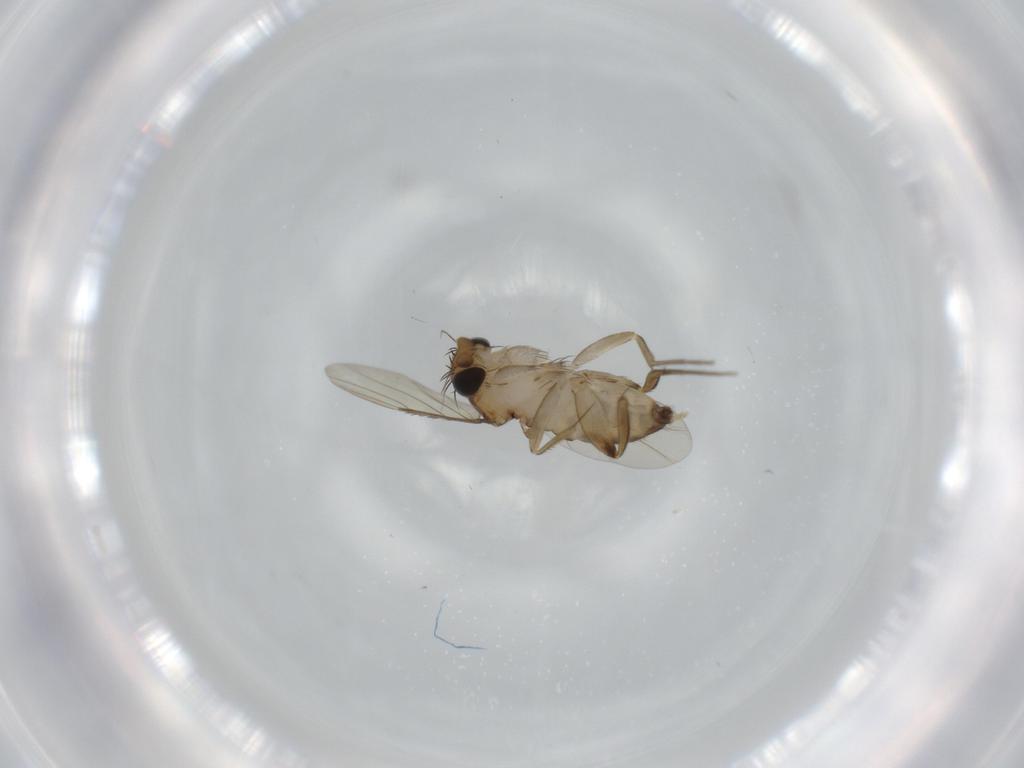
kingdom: Animalia
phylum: Arthropoda
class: Insecta
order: Diptera
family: Phoridae
